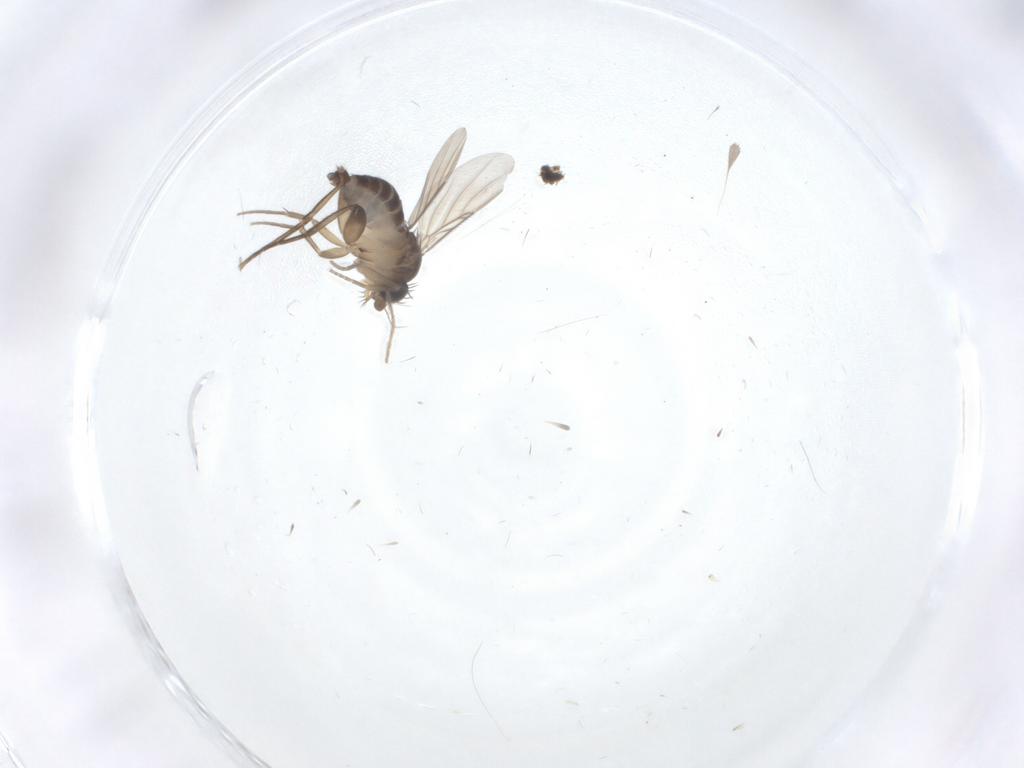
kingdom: Animalia
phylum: Arthropoda
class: Insecta
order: Diptera
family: Phoridae
